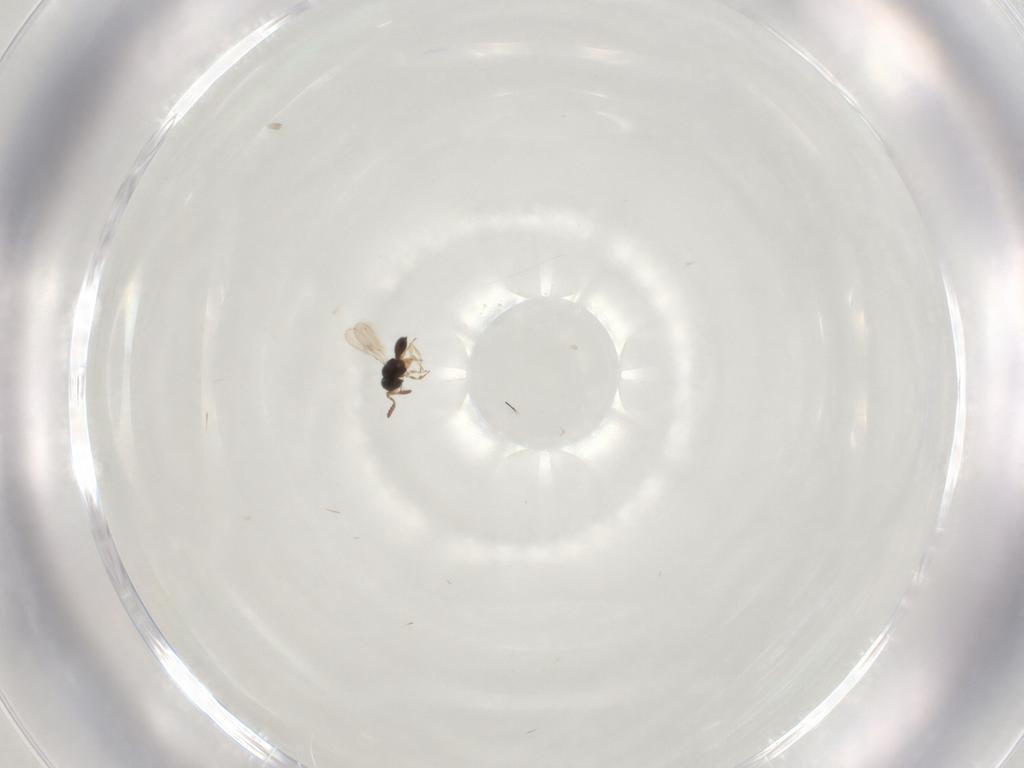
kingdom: Animalia
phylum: Arthropoda
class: Insecta
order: Hymenoptera
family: Scelionidae
